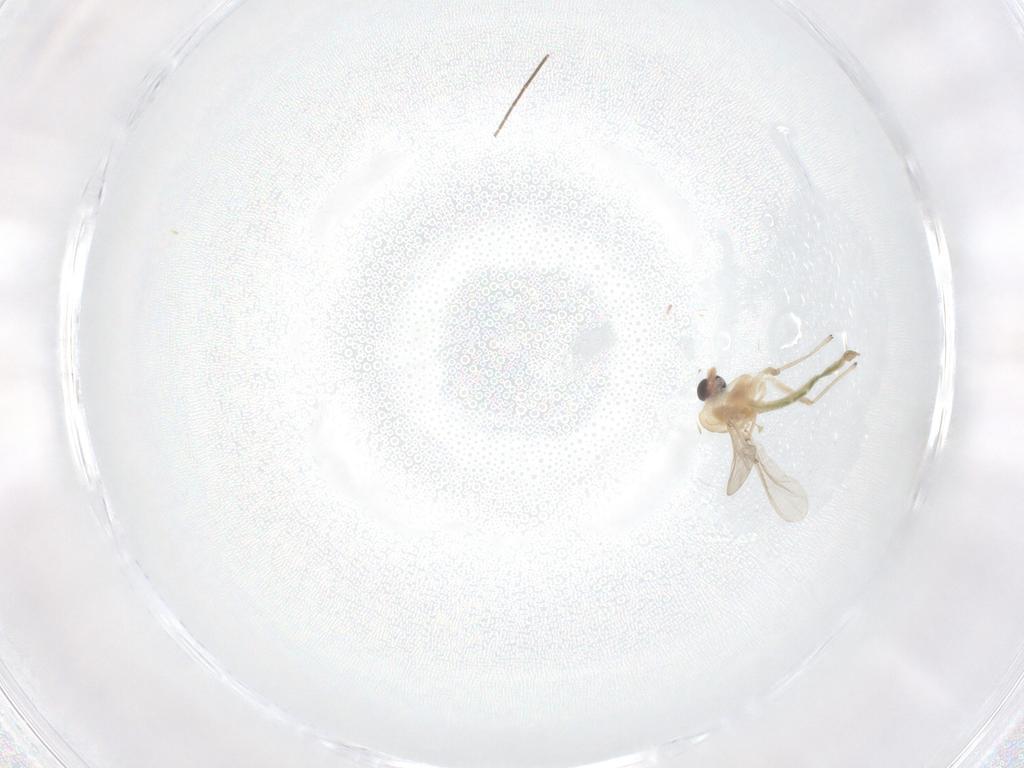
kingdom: Animalia
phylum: Arthropoda
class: Insecta
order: Diptera
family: Chironomidae
